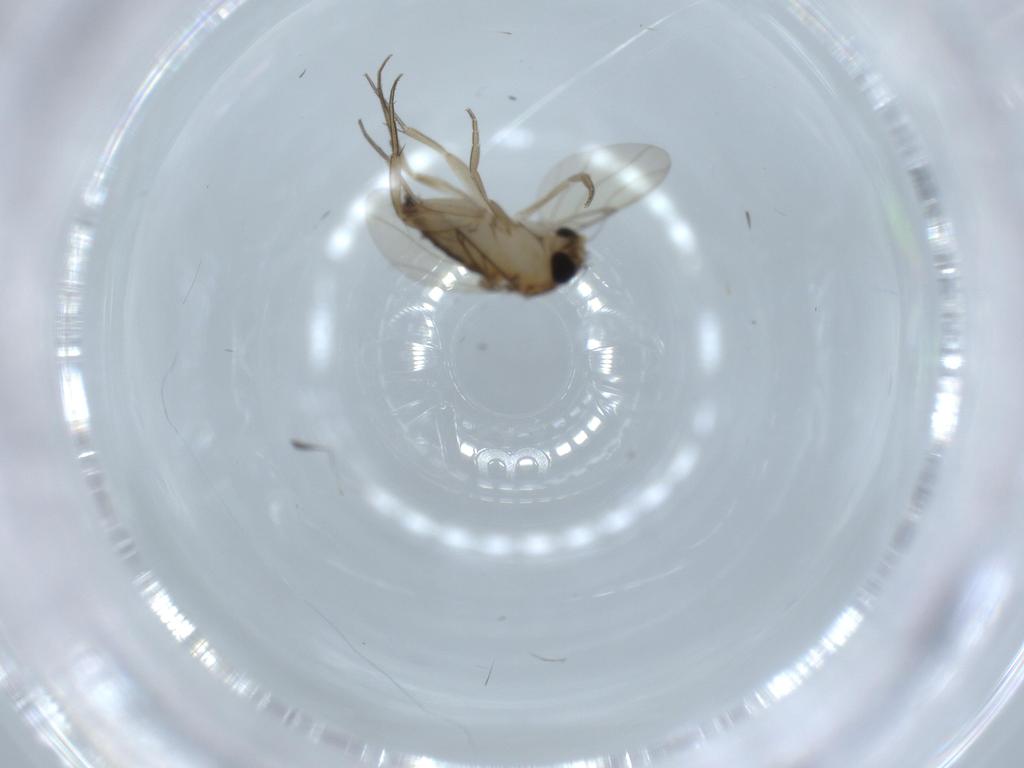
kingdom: Animalia
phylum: Arthropoda
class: Insecta
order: Diptera
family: Phoridae
